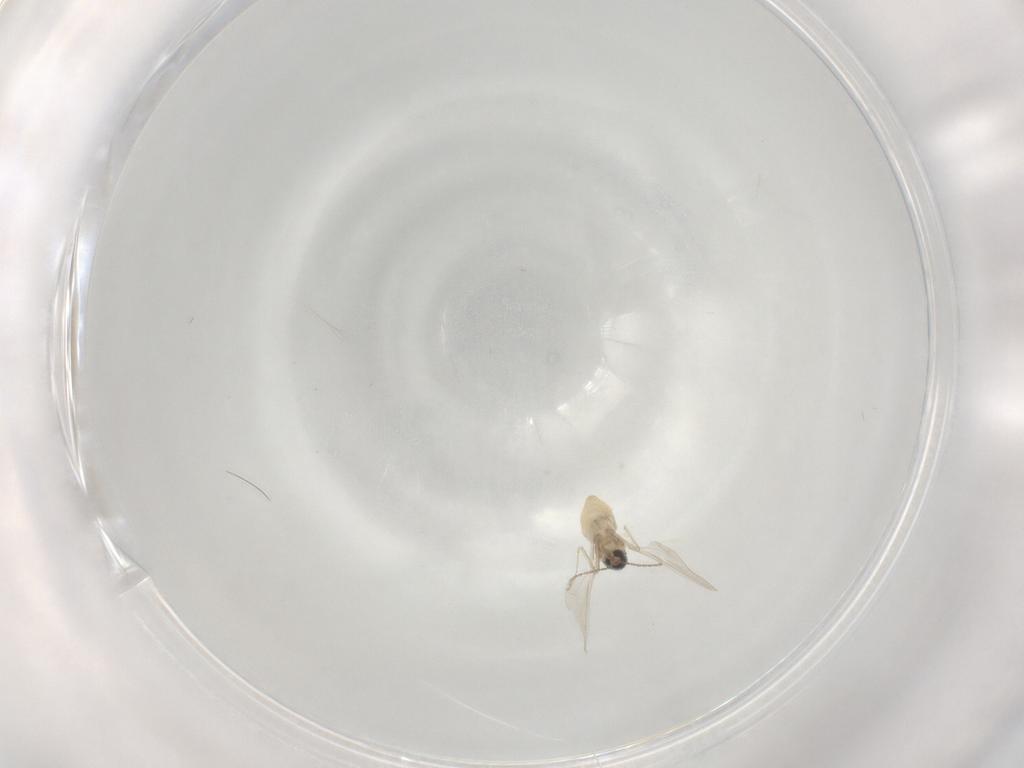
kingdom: Animalia
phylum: Arthropoda
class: Insecta
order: Diptera
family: Cecidomyiidae
